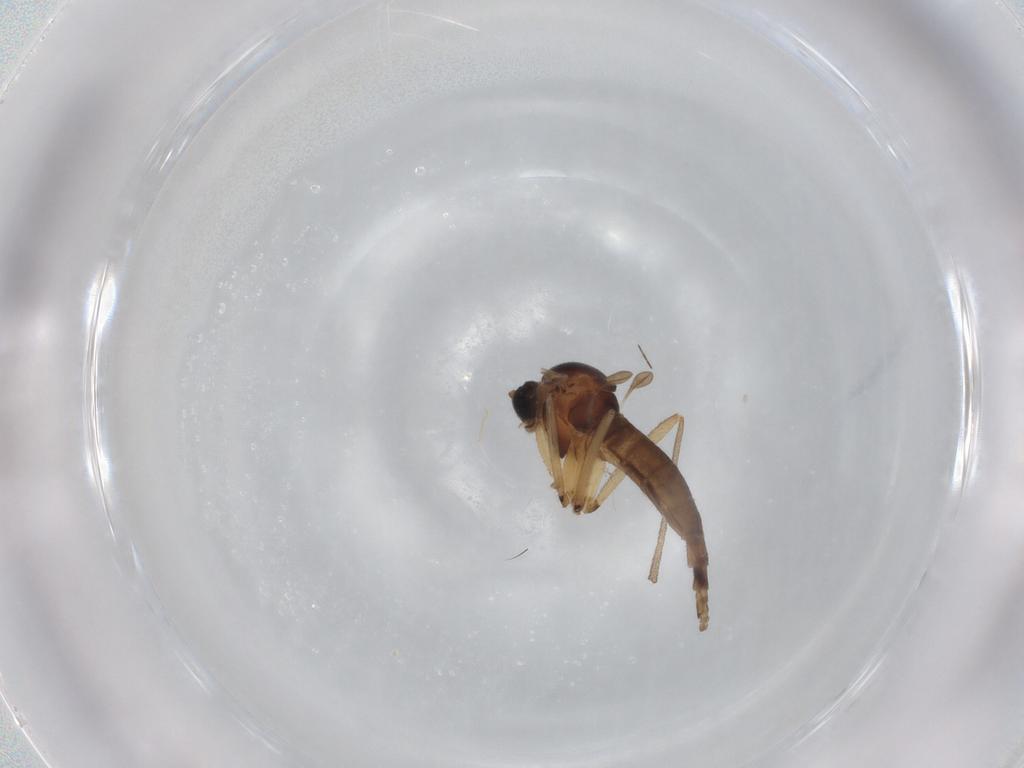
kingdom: Animalia
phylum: Arthropoda
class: Insecta
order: Diptera
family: Sciaridae
